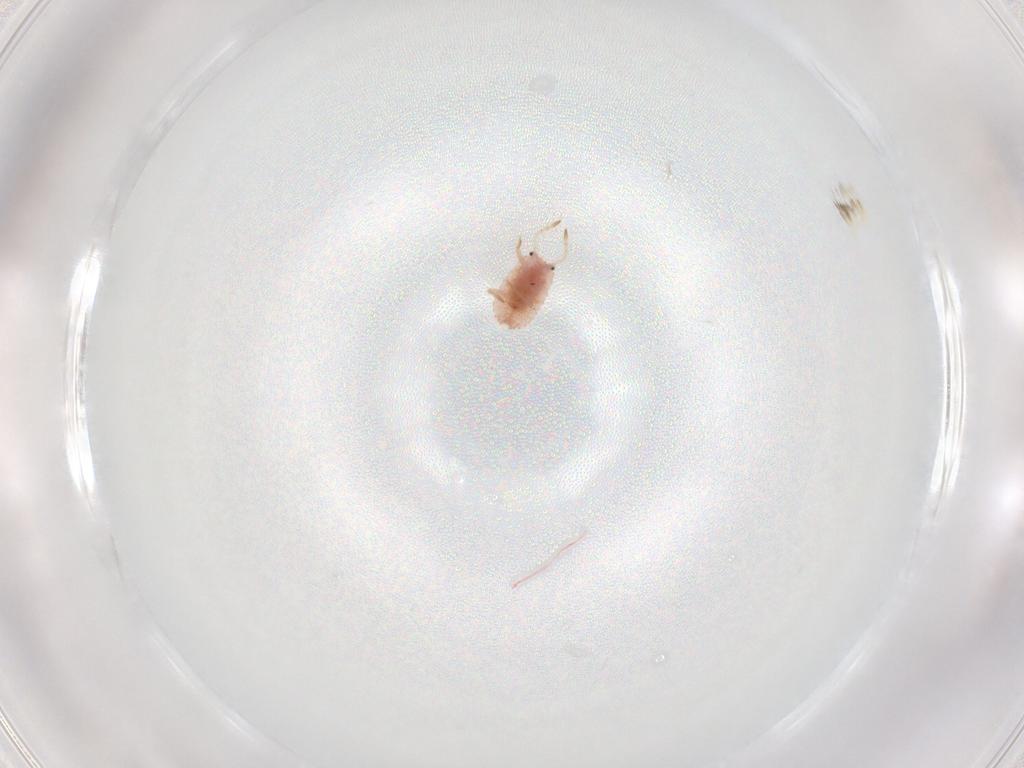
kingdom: Animalia
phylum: Arthropoda
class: Insecta
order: Hemiptera
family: Coccoidea_incertae_sedis
